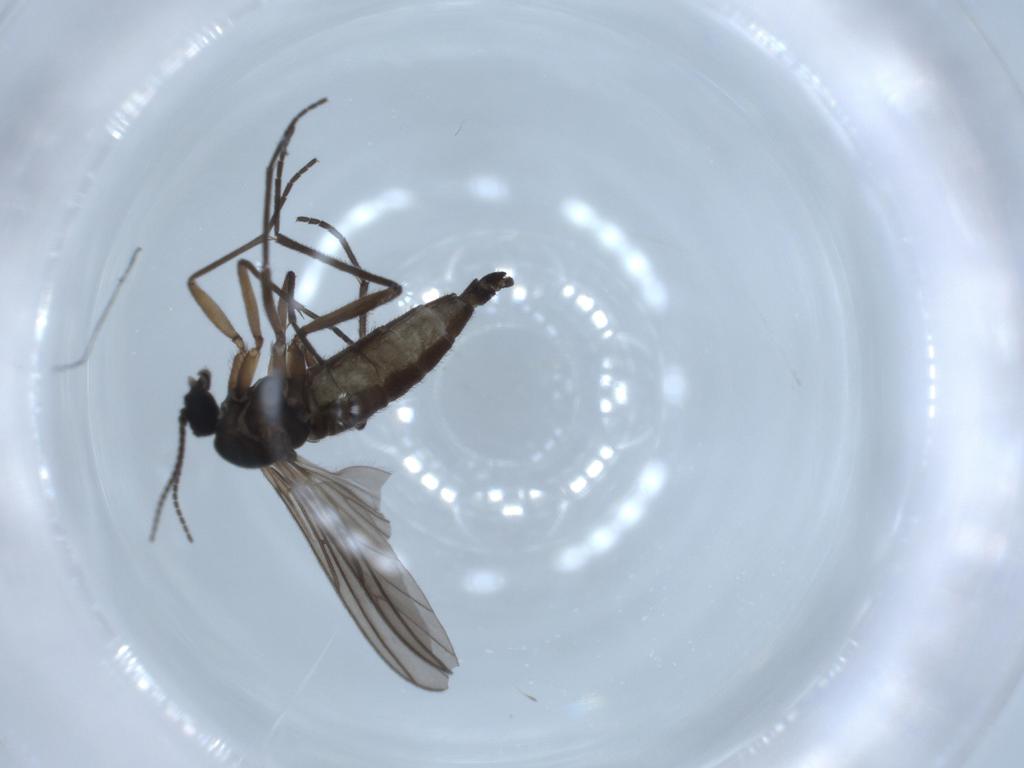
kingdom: Animalia
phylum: Arthropoda
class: Insecta
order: Diptera
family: Sciaridae
